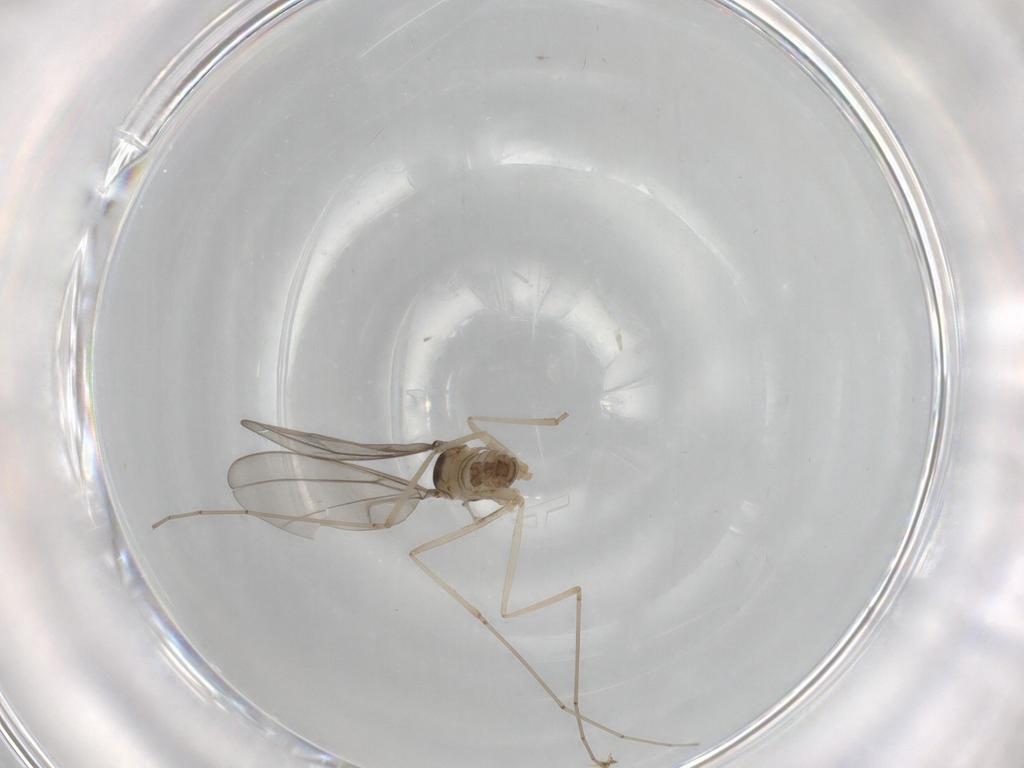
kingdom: Animalia
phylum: Arthropoda
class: Insecta
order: Diptera
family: Cecidomyiidae
